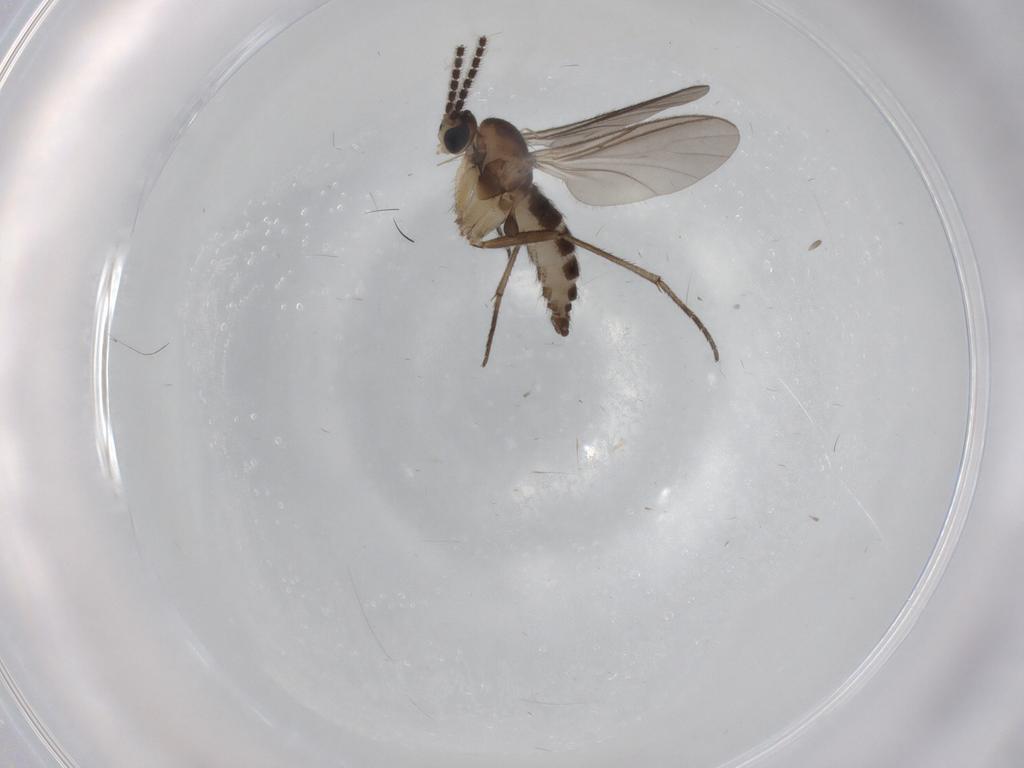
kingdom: Animalia
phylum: Arthropoda
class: Insecta
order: Diptera
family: Sciaridae
